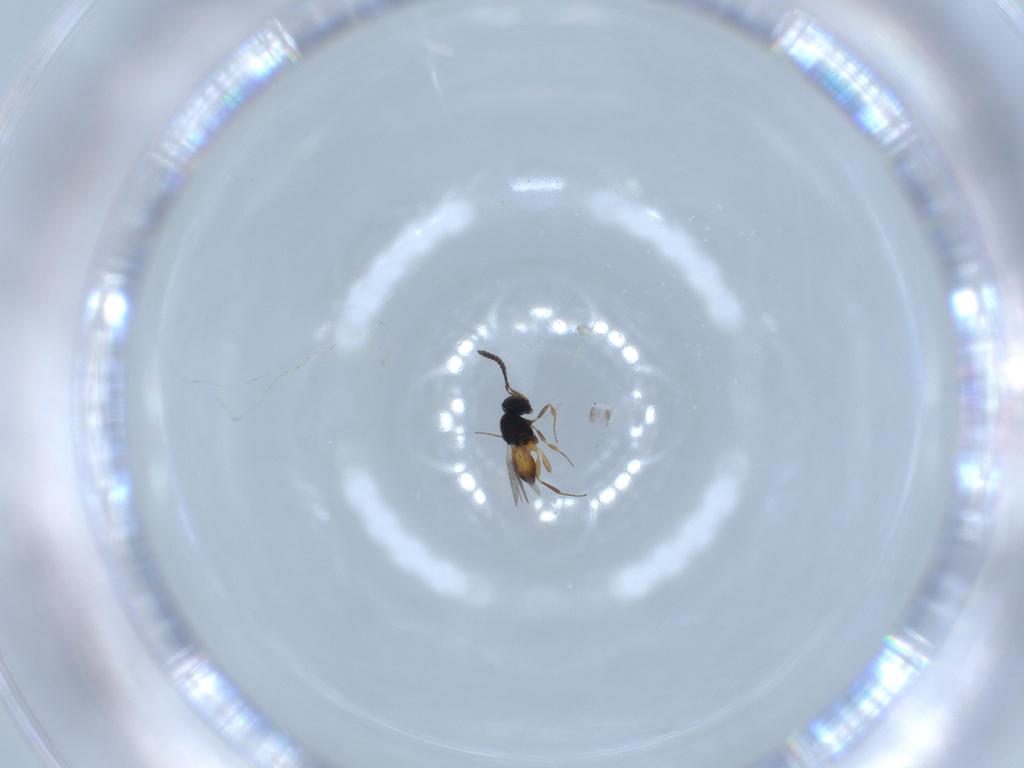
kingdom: Animalia
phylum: Arthropoda
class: Insecta
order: Hymenoptera
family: Scelionidae
